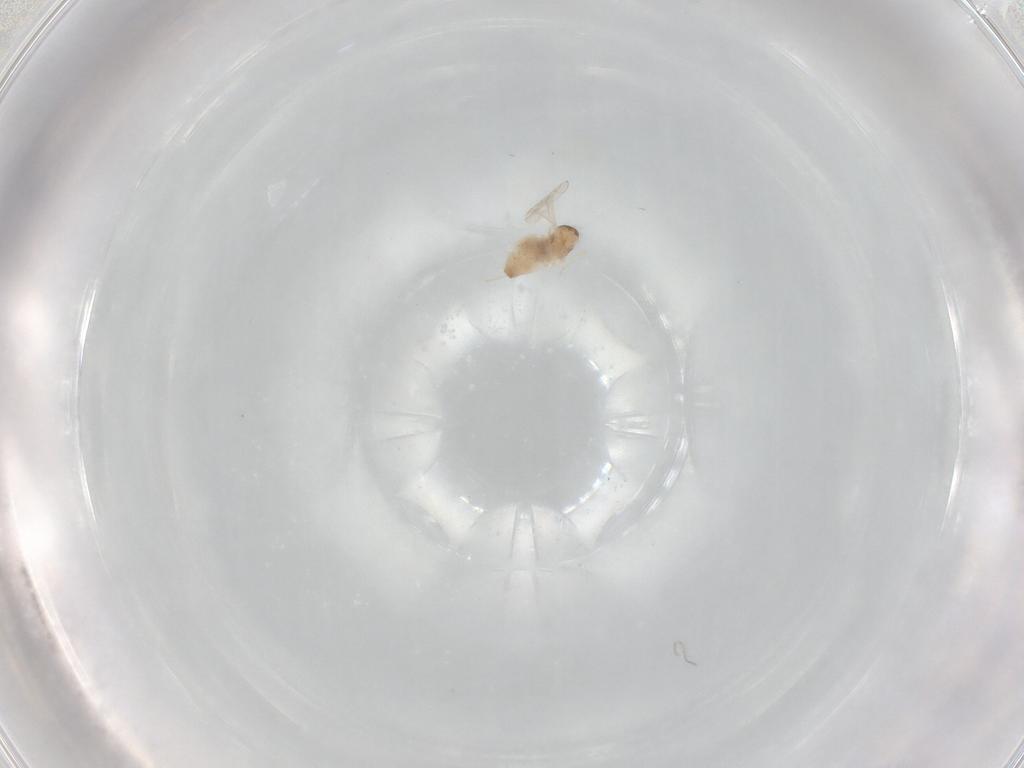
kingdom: Animalia
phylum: Arthropoda
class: Insecta
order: Diptera
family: Cecidomyiidae
